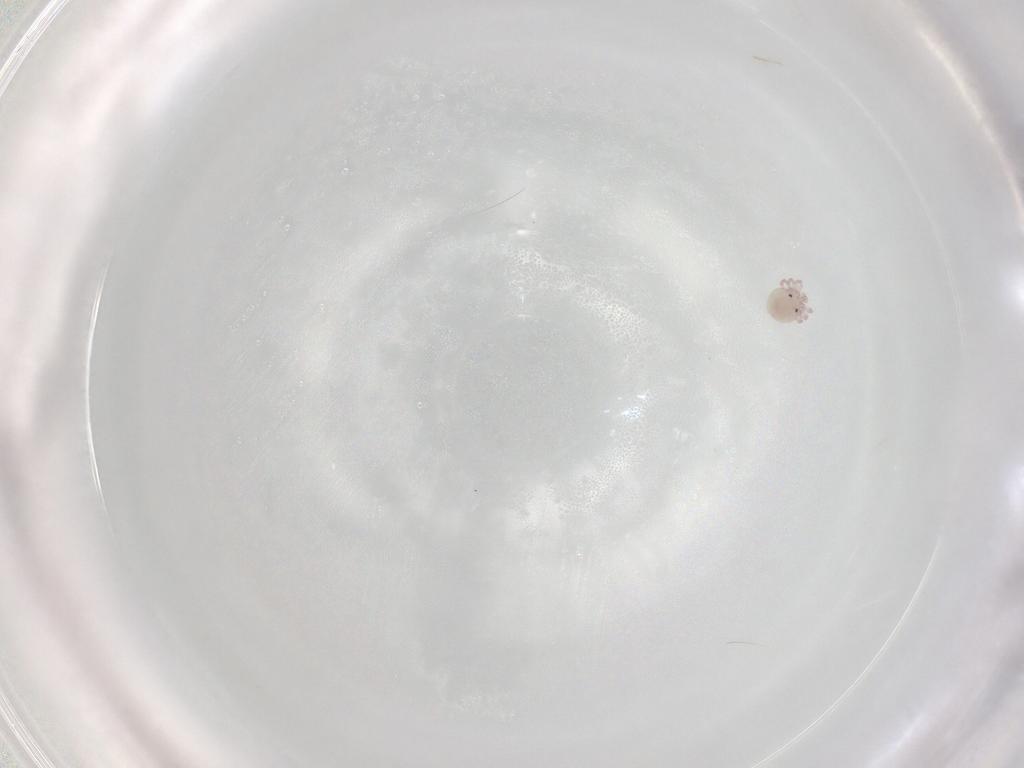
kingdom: Animalia
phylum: Arthropoda
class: Arachnida
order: Trombidiformes
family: Lebertiidae
